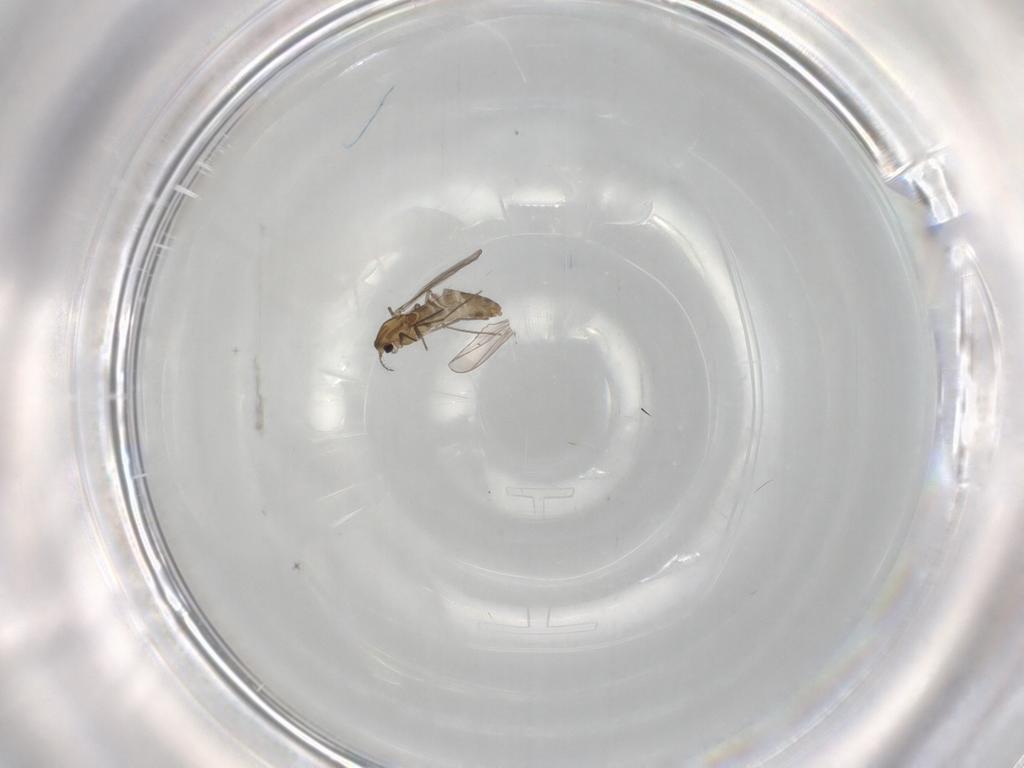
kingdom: Animalia
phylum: Arthropoda
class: Insecta
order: Diptera
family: Chironomidae
